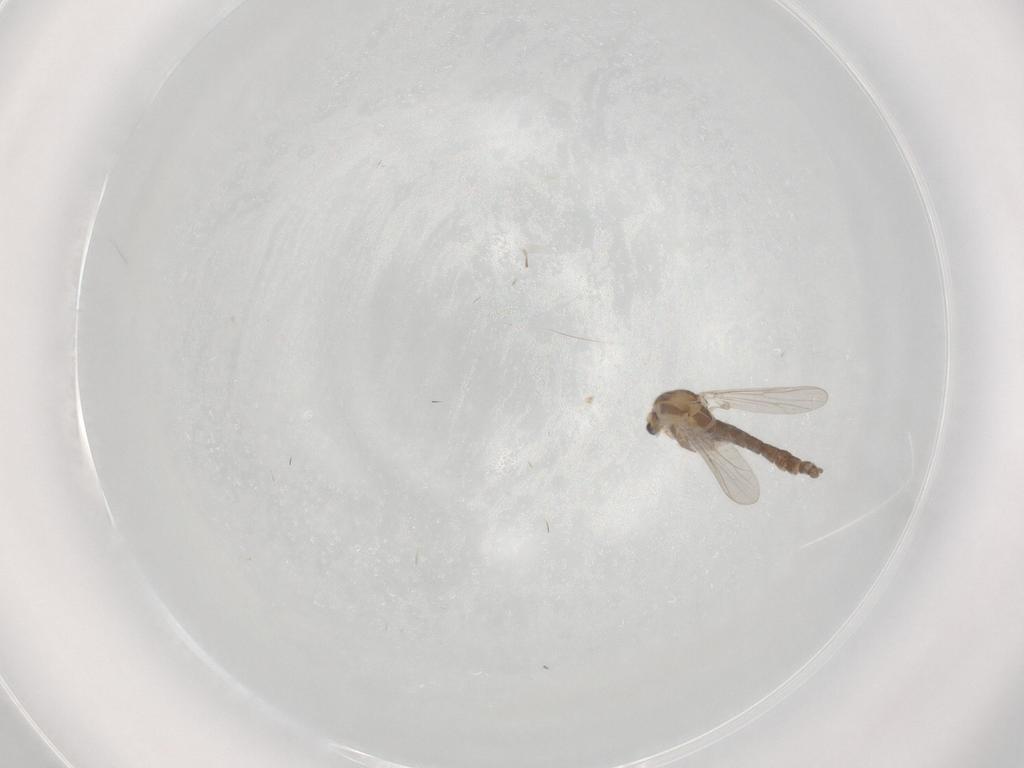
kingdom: Animalia
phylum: Arthropoda
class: Insecta
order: Diptera
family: Chironomidae
